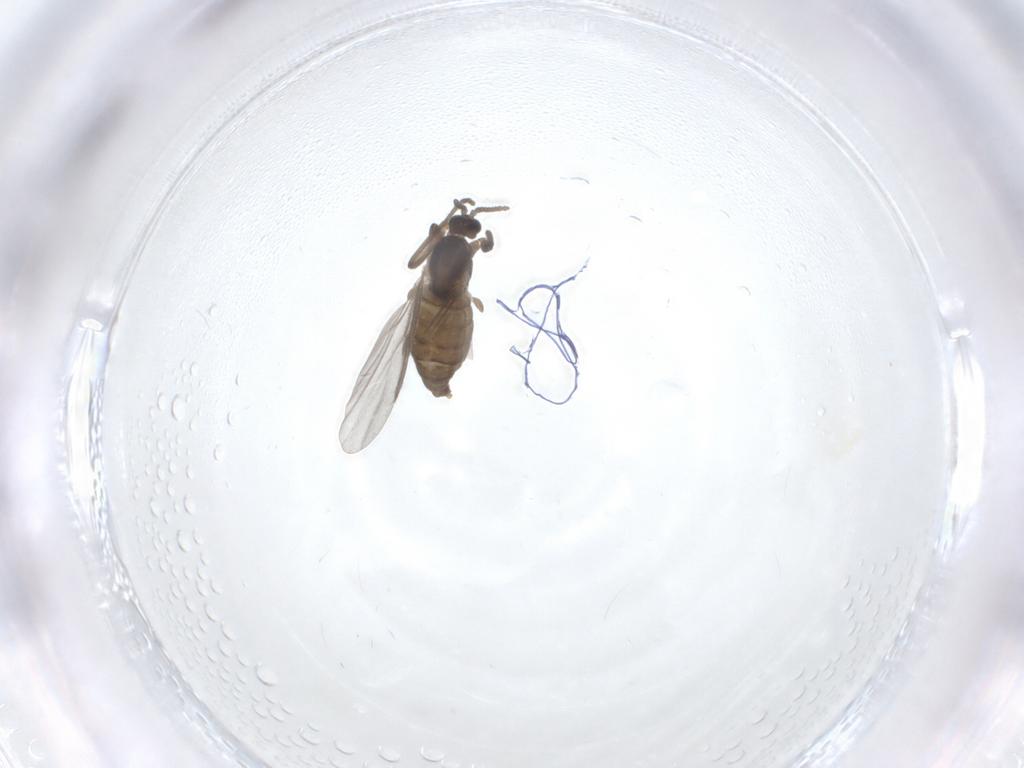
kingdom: Animalia
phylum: Arthropoda
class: Insecta
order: Diptera
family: Cecidomyiidae
